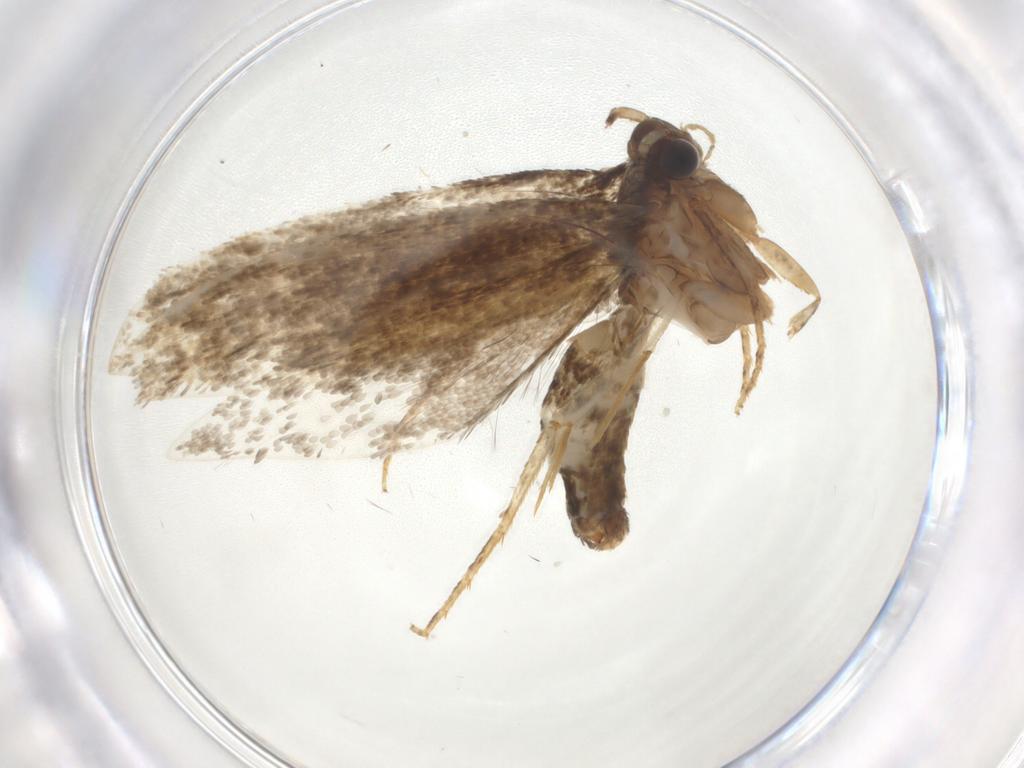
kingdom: Animalia
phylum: Arthropoda
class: Insecta
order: Lepidoptera
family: Crambidae
